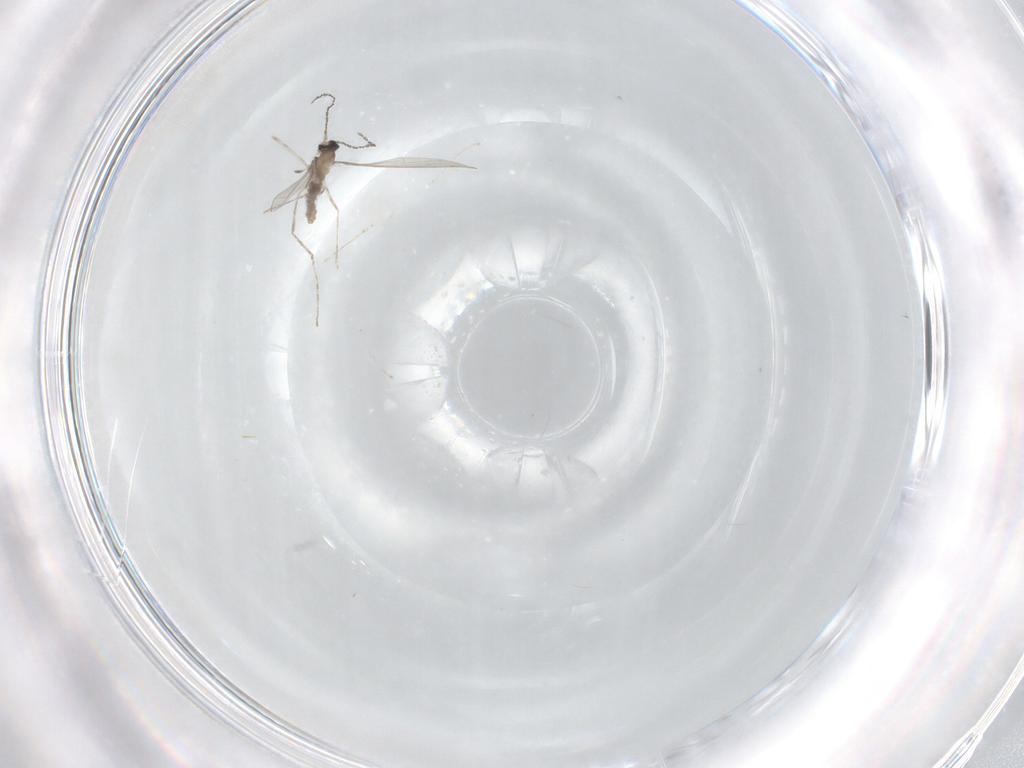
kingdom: Animalia
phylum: Arthropoda
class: Insecta
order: Diptera
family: Cecidomyiidae
